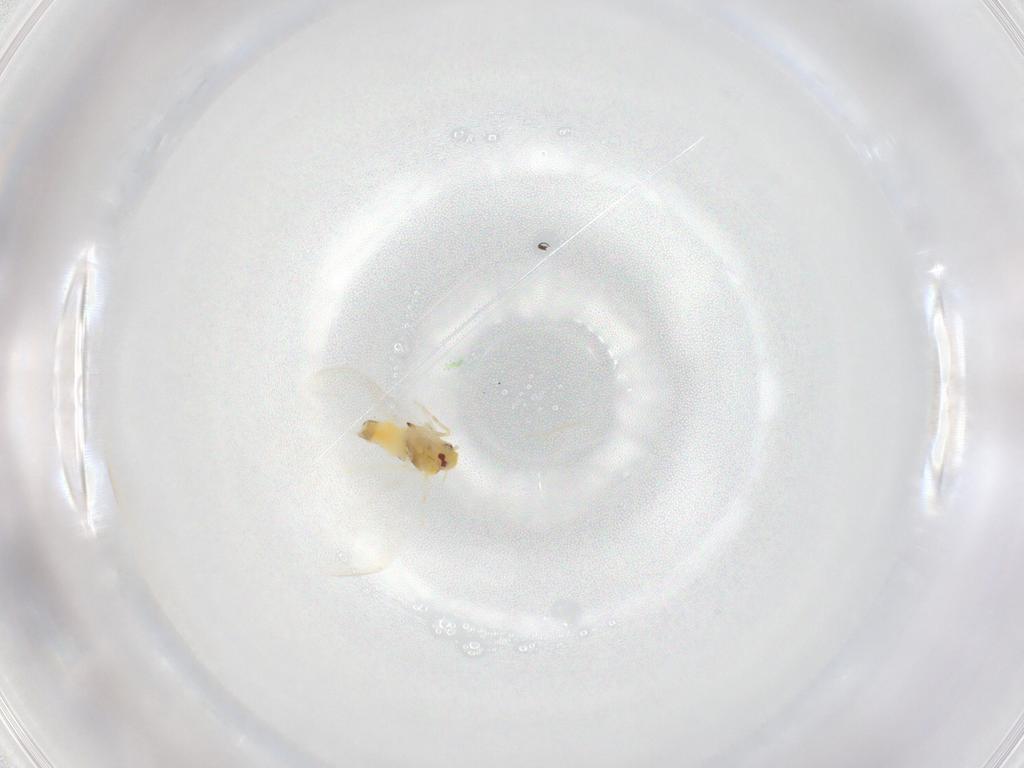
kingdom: Animalia
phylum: Arthropoda
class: Insecta
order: Hemiptera
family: Aleyrodidae
